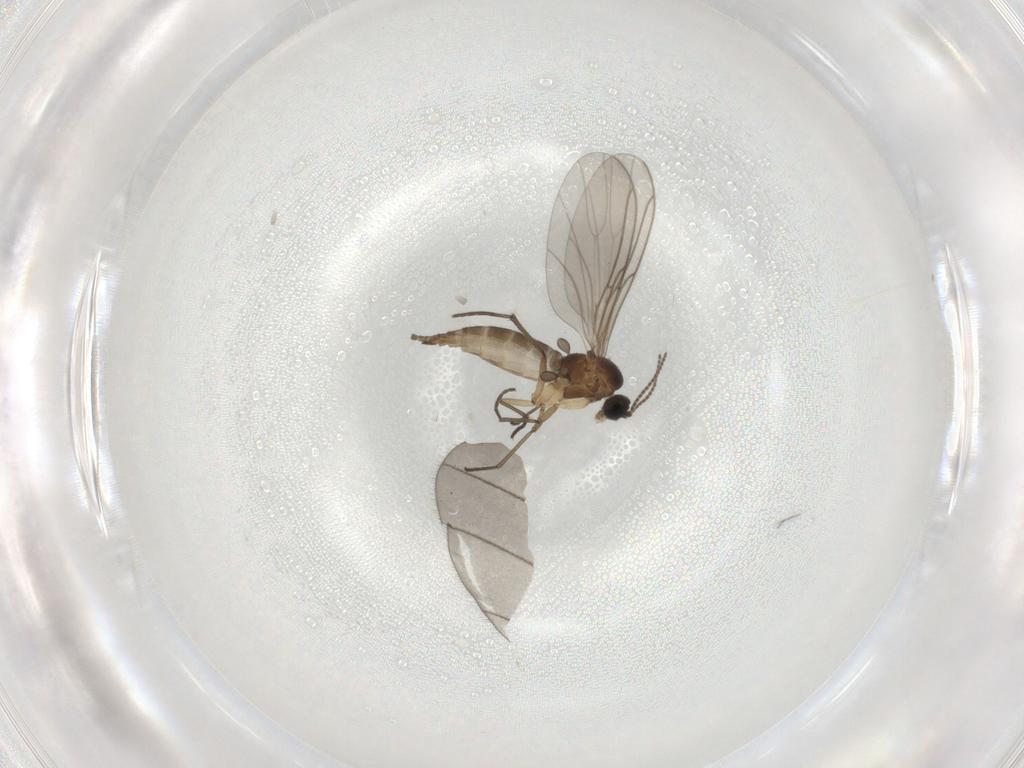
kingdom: Animalia
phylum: Arthropoda
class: Insecta
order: Diptera
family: Sciaridae
